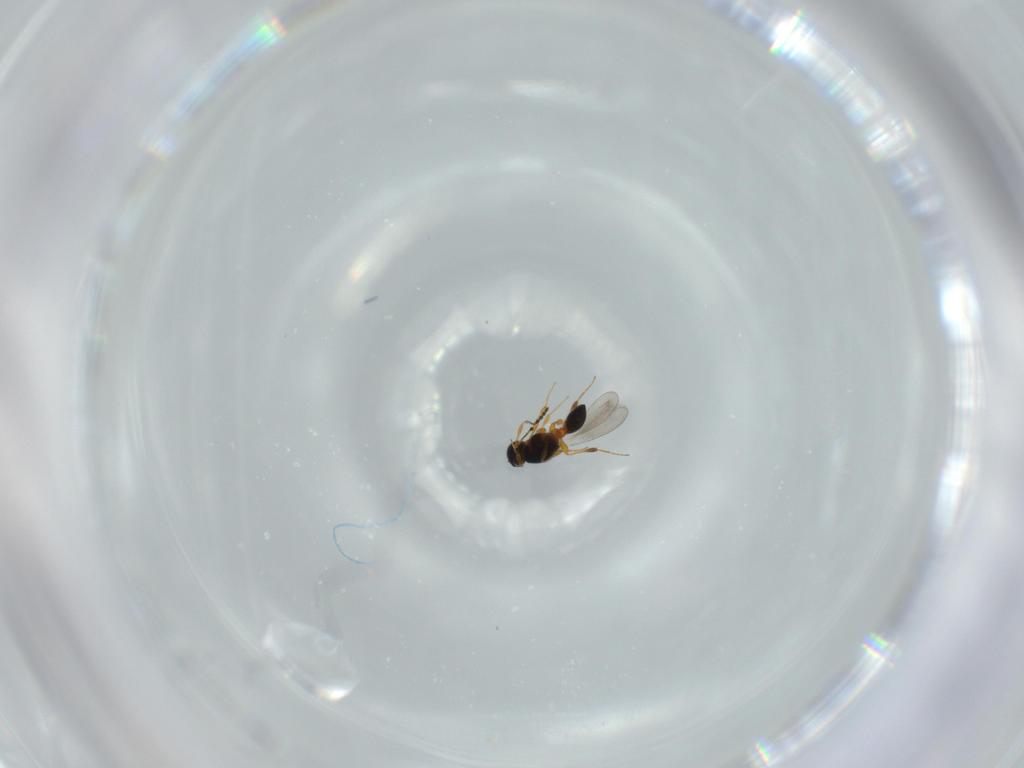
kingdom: Animalia
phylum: Arthropoda
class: Insecta
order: Hymenoptera
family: Platygastridae
